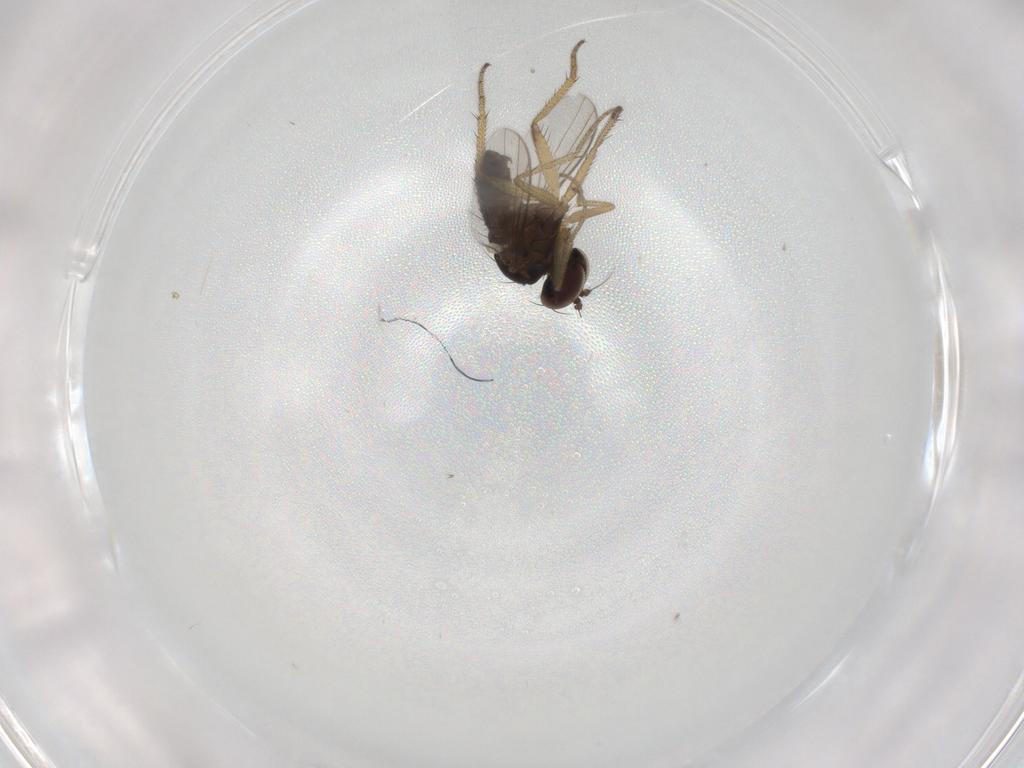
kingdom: Animalia
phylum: Arthropoda
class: Insecta
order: Diptera
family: Dolichopodidae
